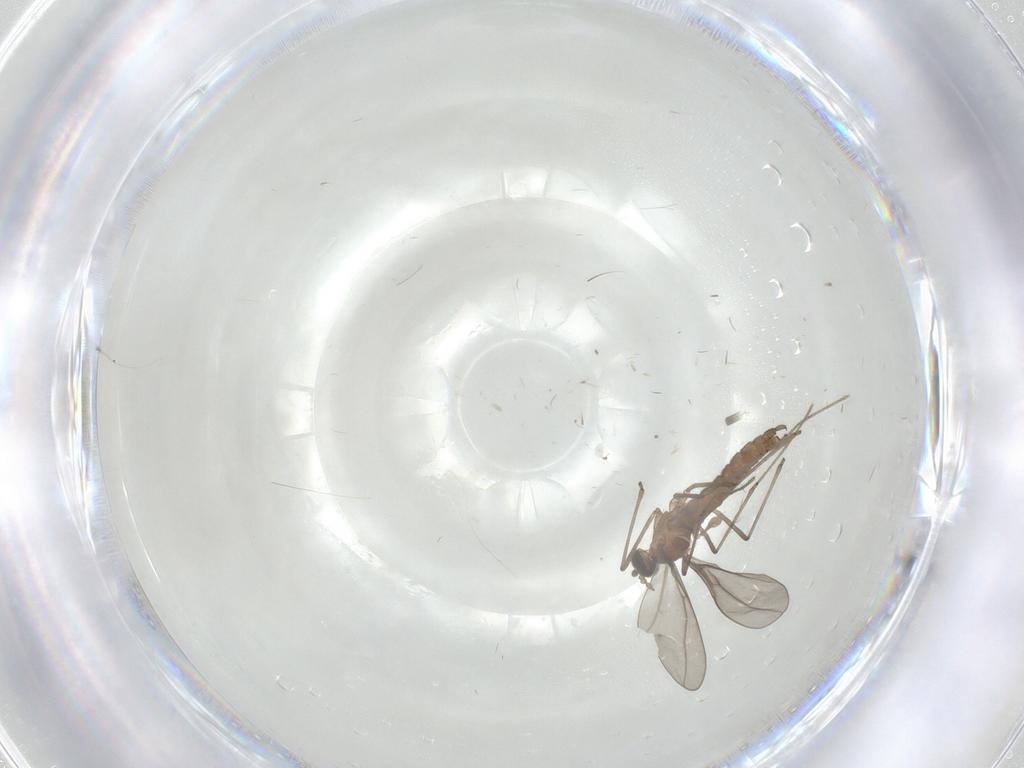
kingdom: Animalia
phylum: Arthropoda
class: Insecta
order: Diptera
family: Cecidomyiidae
